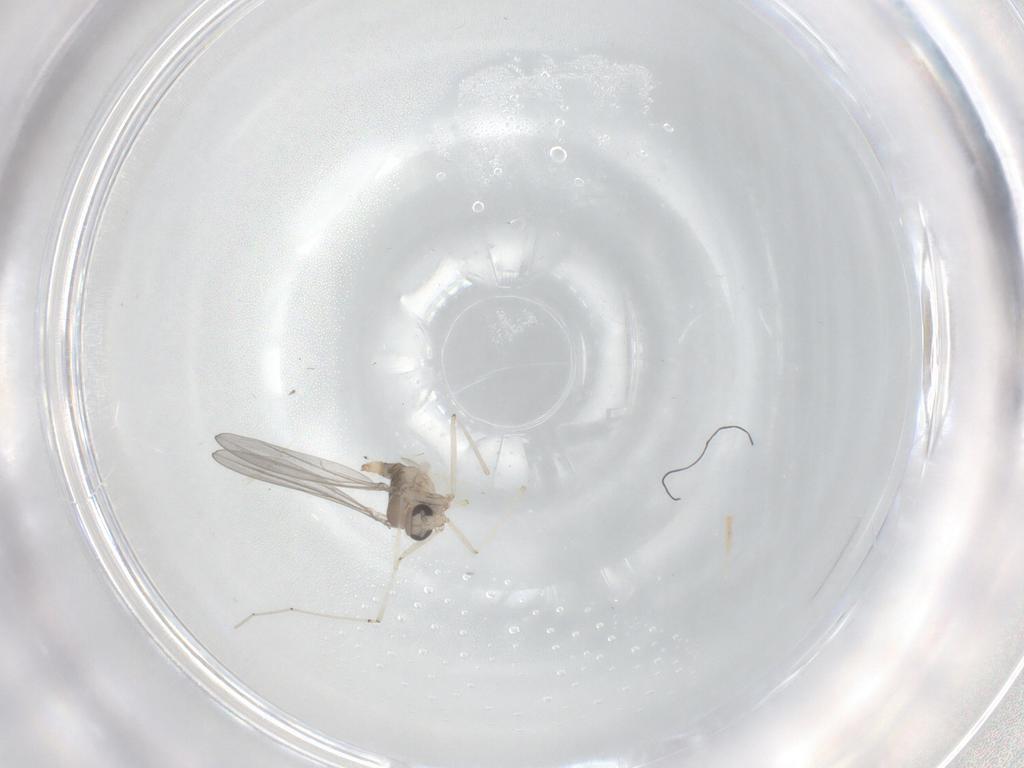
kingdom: Animalia
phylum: Arthropoda
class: Insecta
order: Diptera
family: Cecidomyiidae
